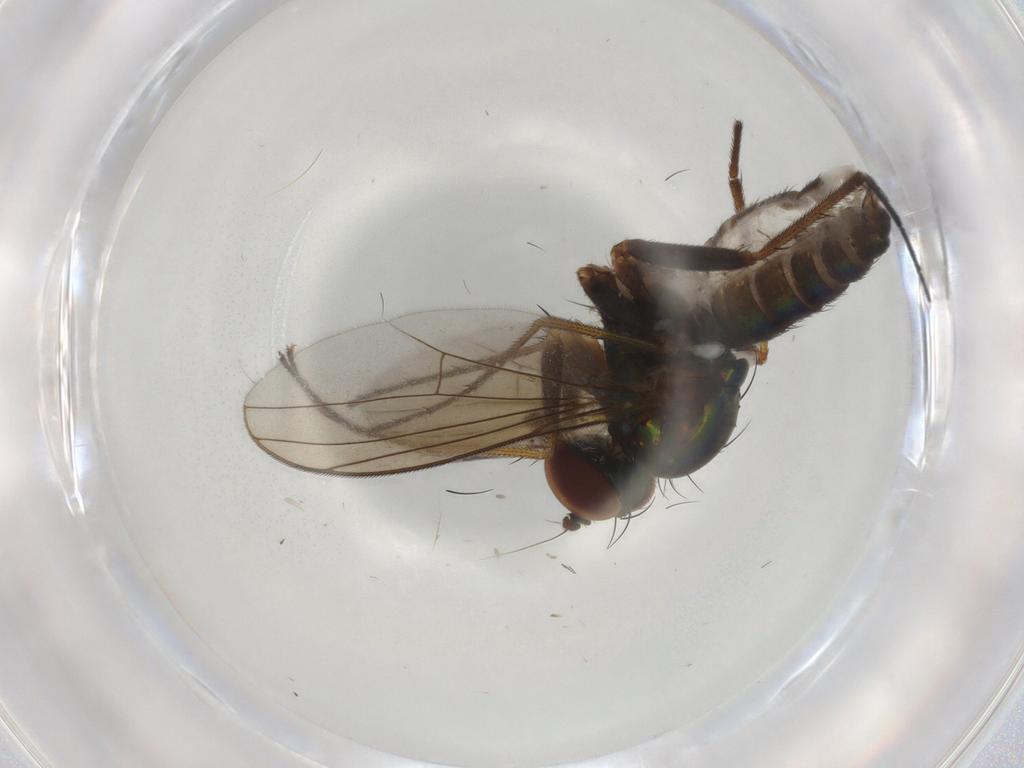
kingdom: Animalia
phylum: Arthropoda
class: Insecta
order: Diptera
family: Dolichopodidae
